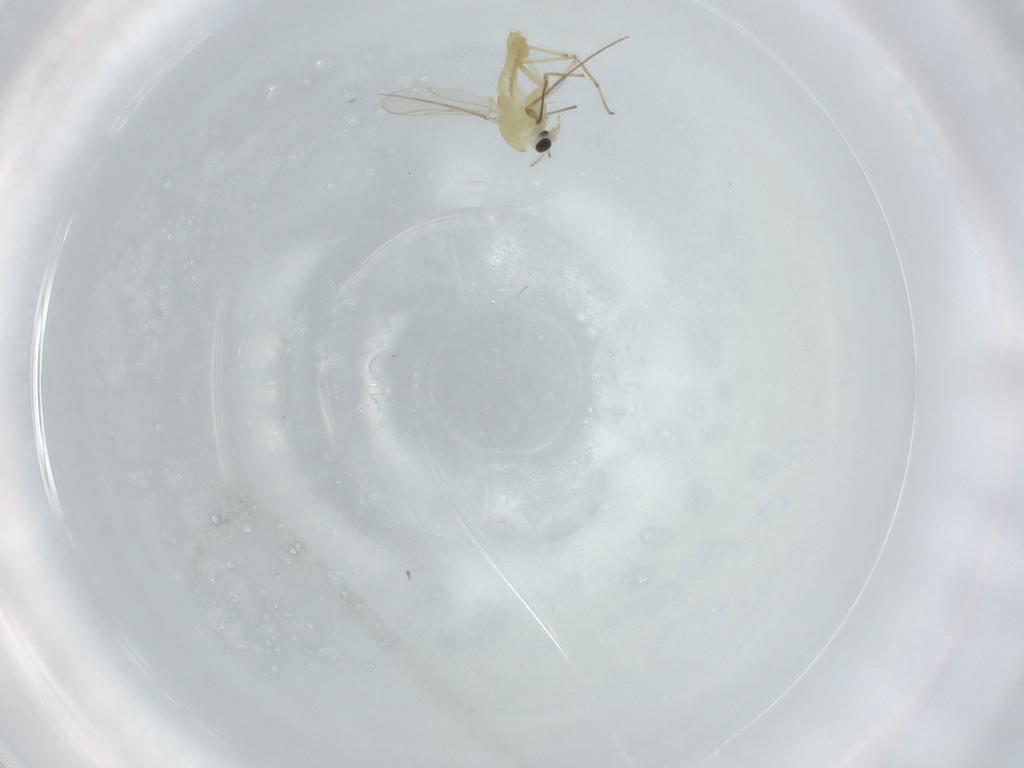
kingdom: Animalia
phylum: Arthropoda
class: Insecta
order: Diptera
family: Chironomidae
